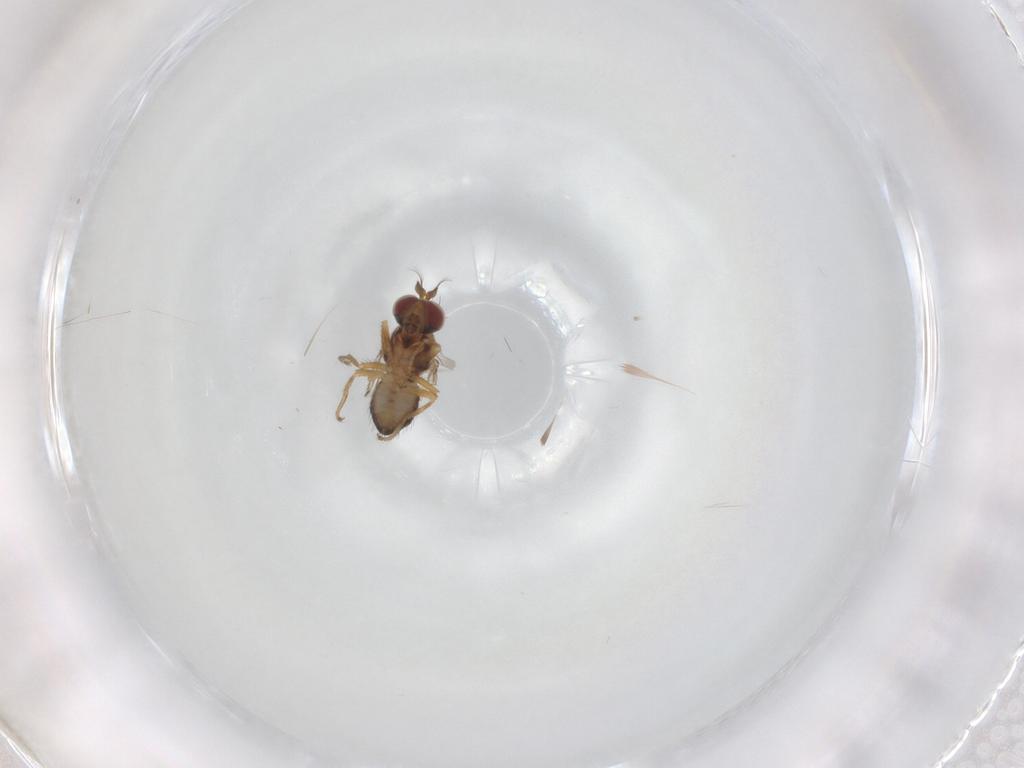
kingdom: Animalia
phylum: Arthropoda
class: Insecta
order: Diptera
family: Ephydridae
